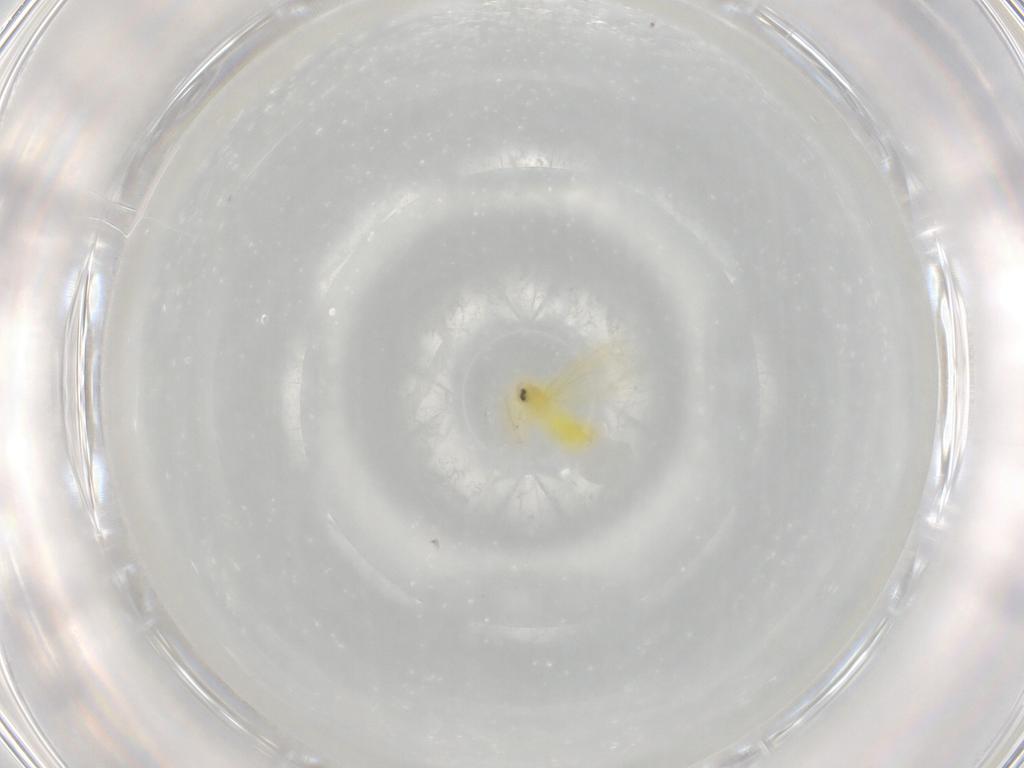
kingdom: Animalia
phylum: Arthropoda
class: Insecta
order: Hemiptera
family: Aleyrodidae
